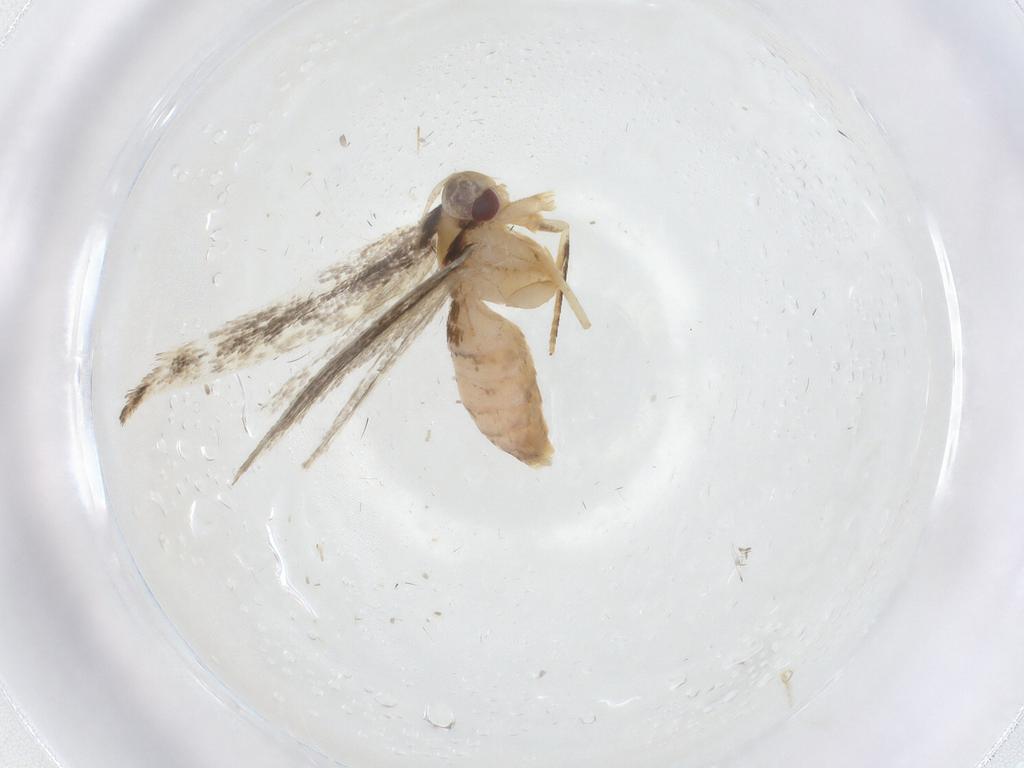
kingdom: Animalia
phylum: Arthropoda
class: Insecta
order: Lepidoptera
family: Cosmopterigidae
